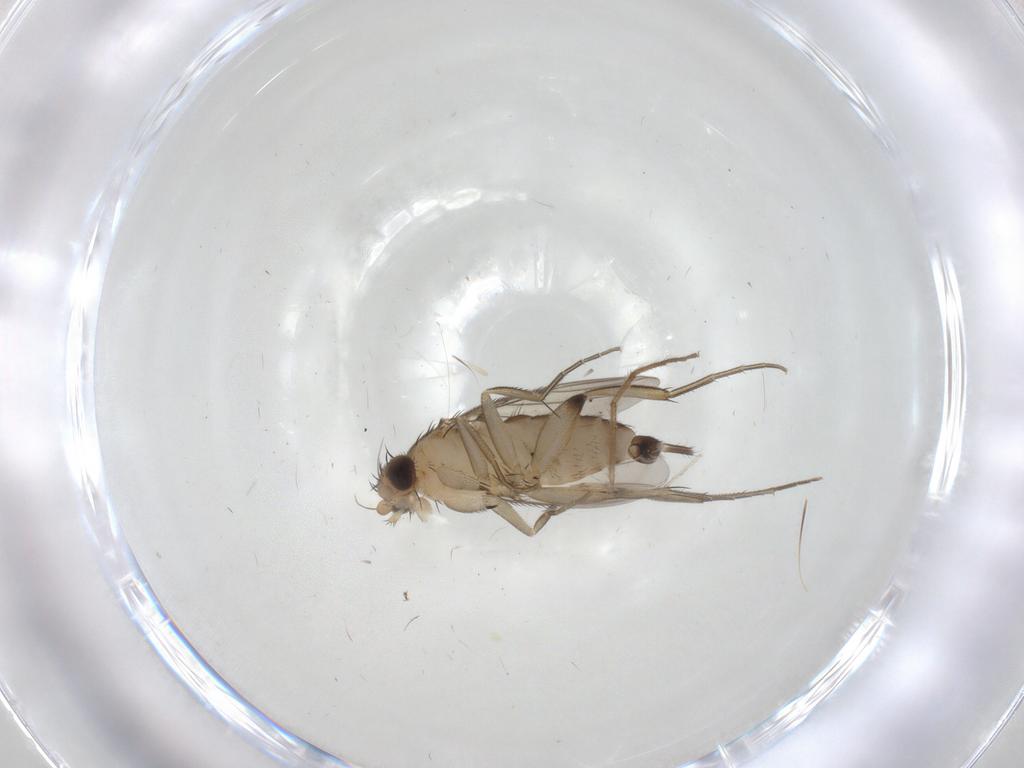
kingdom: Animalia
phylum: Arthropoda
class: Insecta
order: Diptera
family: Phoridae
